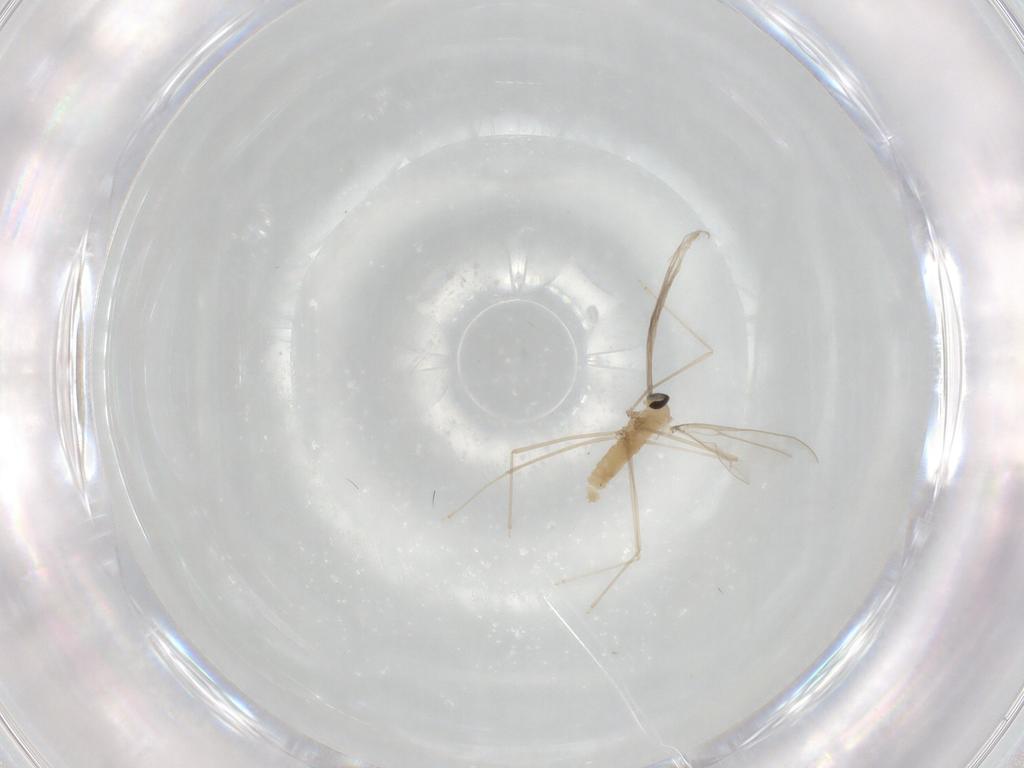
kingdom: Animalia
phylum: Arthropoda
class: Insecta
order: Diptera
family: Cecidomyiidae
